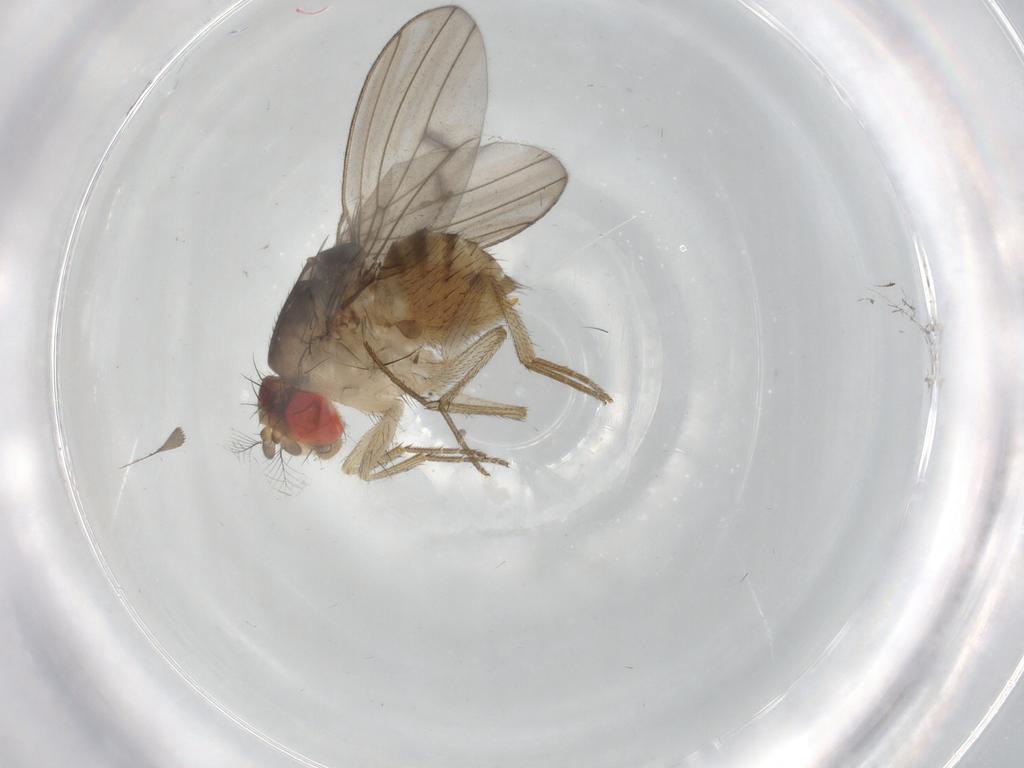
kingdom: Animalia
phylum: Arthropoda
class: Insecta
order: Diptera
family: Drosophilidae
